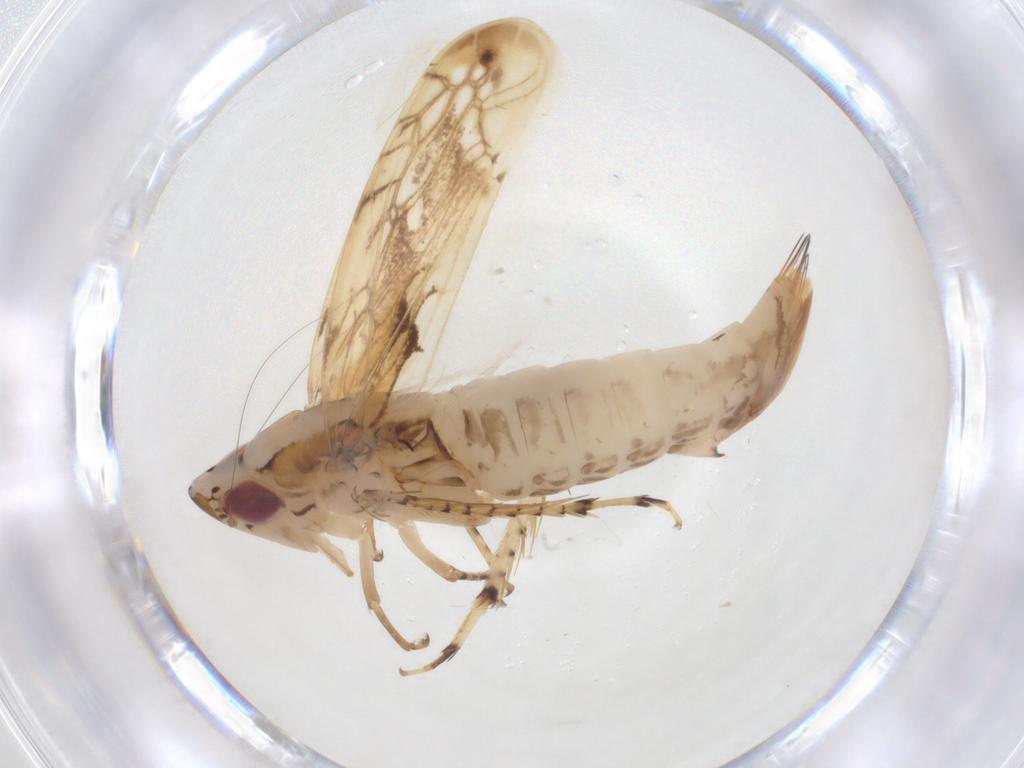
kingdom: Animalia
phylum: Arthropoda
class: Insecta
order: Hemiptera
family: Cicadellidae
